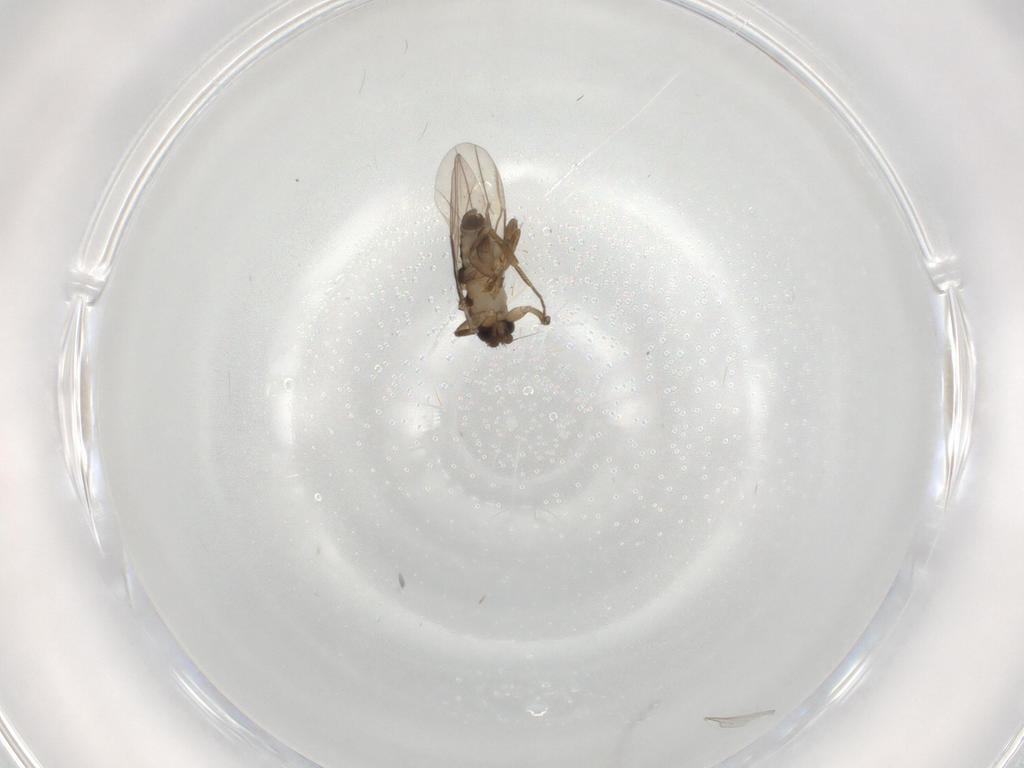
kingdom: Animalia
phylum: Arthropoda
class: Insecta
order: Diptera
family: Phoridae
